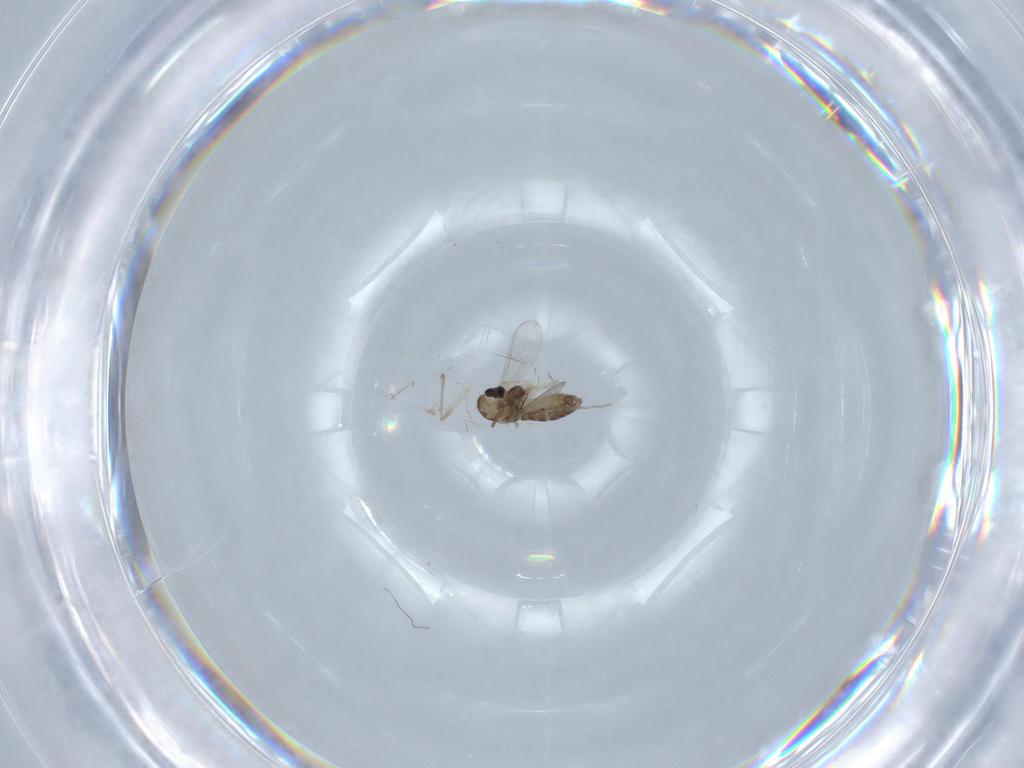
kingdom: Animalia
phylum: Arthropoda
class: Insecta
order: Diptera
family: Chironomidae
